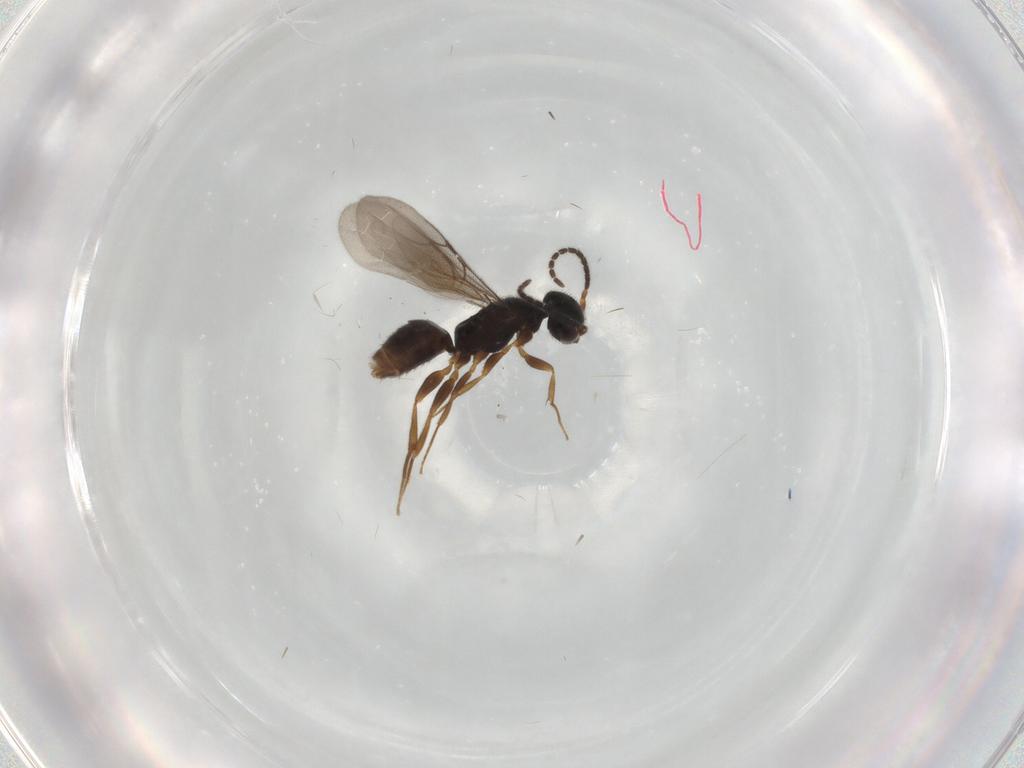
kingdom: Animalia
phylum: Arthropoda
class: Insecta
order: Hymenoptera
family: Bethylidae
